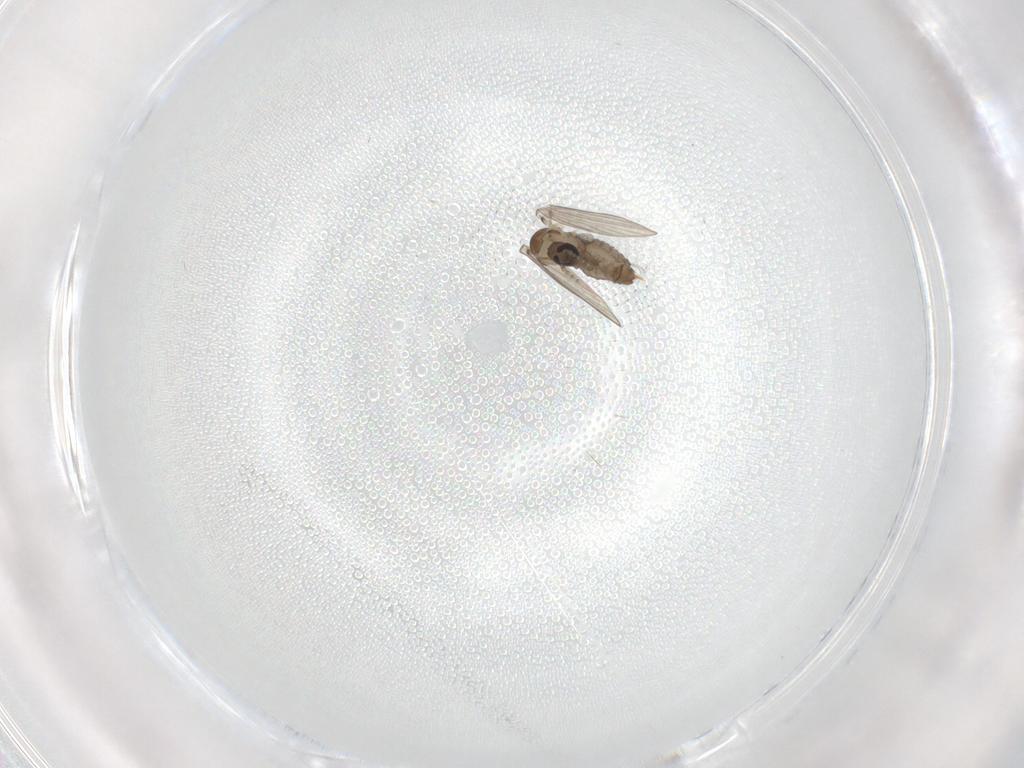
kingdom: Animalia
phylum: Arthropoda
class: Insecta
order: Diptera
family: Psychodidae
